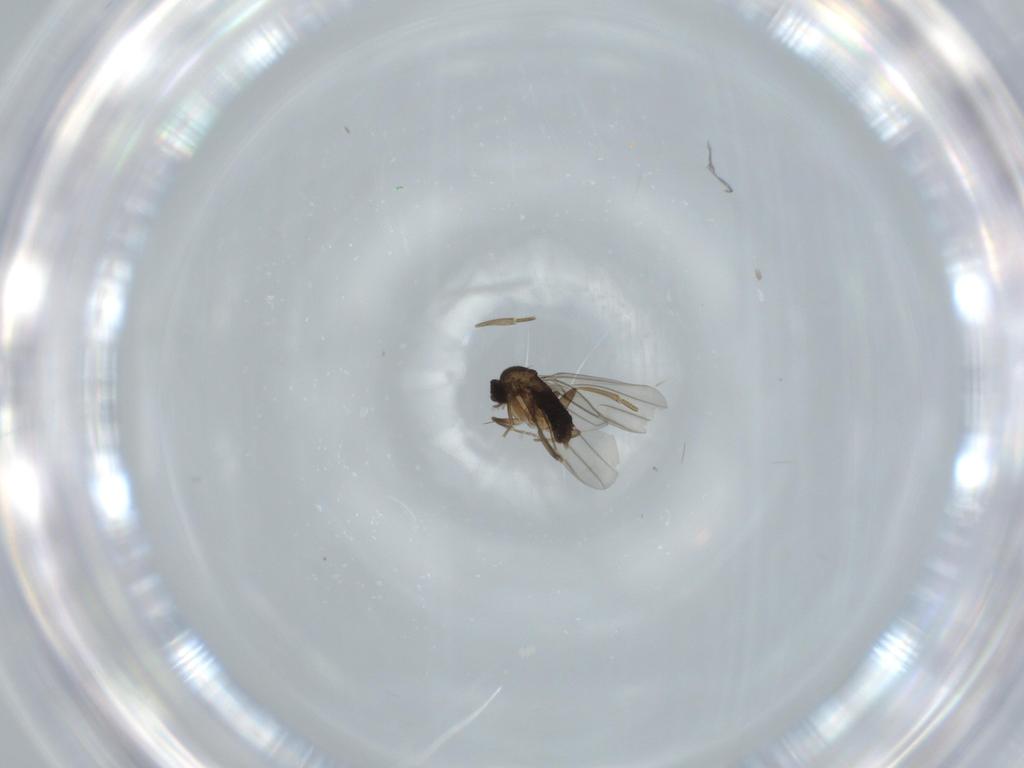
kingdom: Animalia
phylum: Arthropoda
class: Insecta
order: Diptera
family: Phoridae
